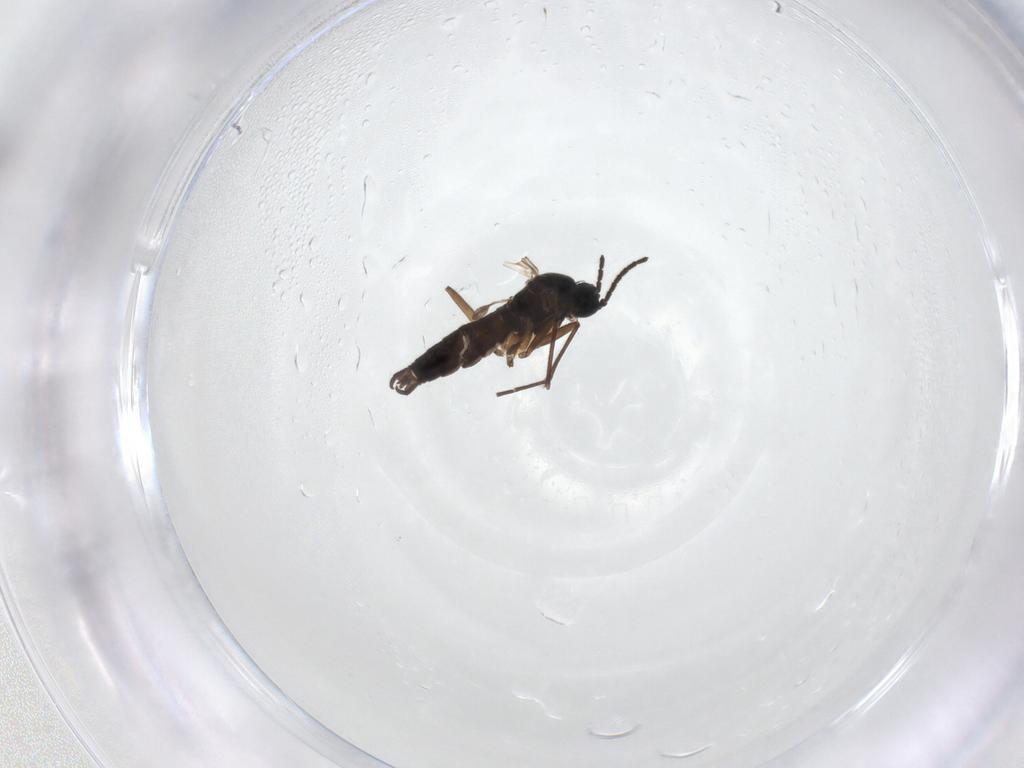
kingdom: Animalia
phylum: Arthropoda
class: Insecta
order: Diptera
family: Sciaridae
